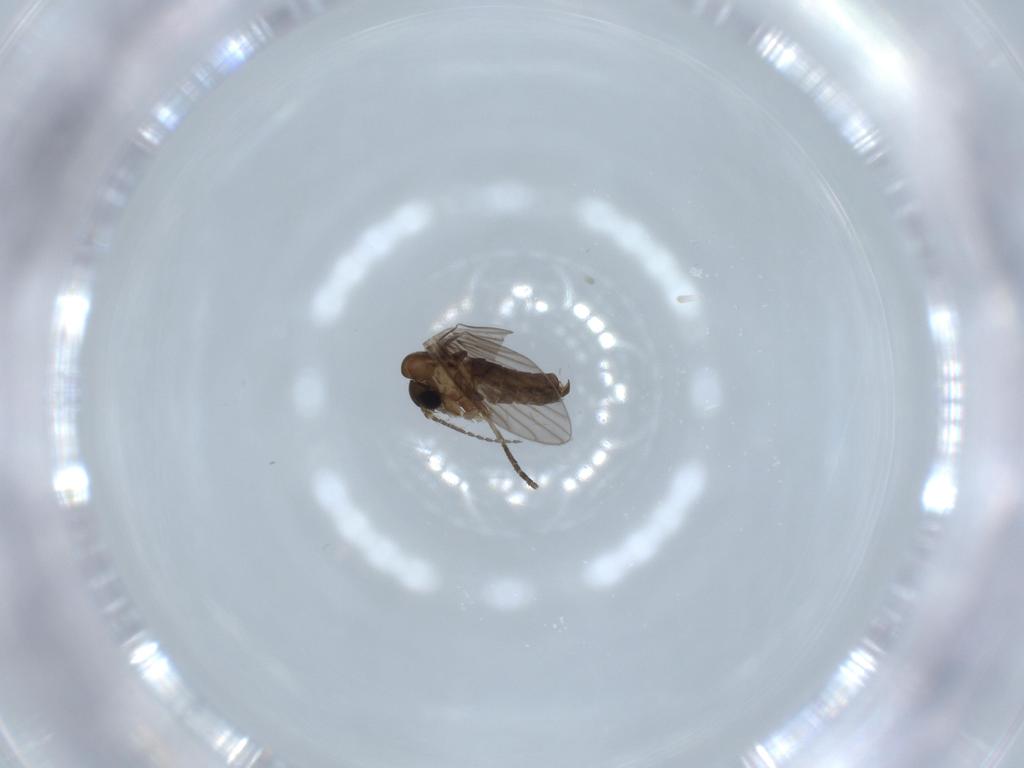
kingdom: Animalia
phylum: Arthropoda
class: Insecta
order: Diptera
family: Psychodidae
